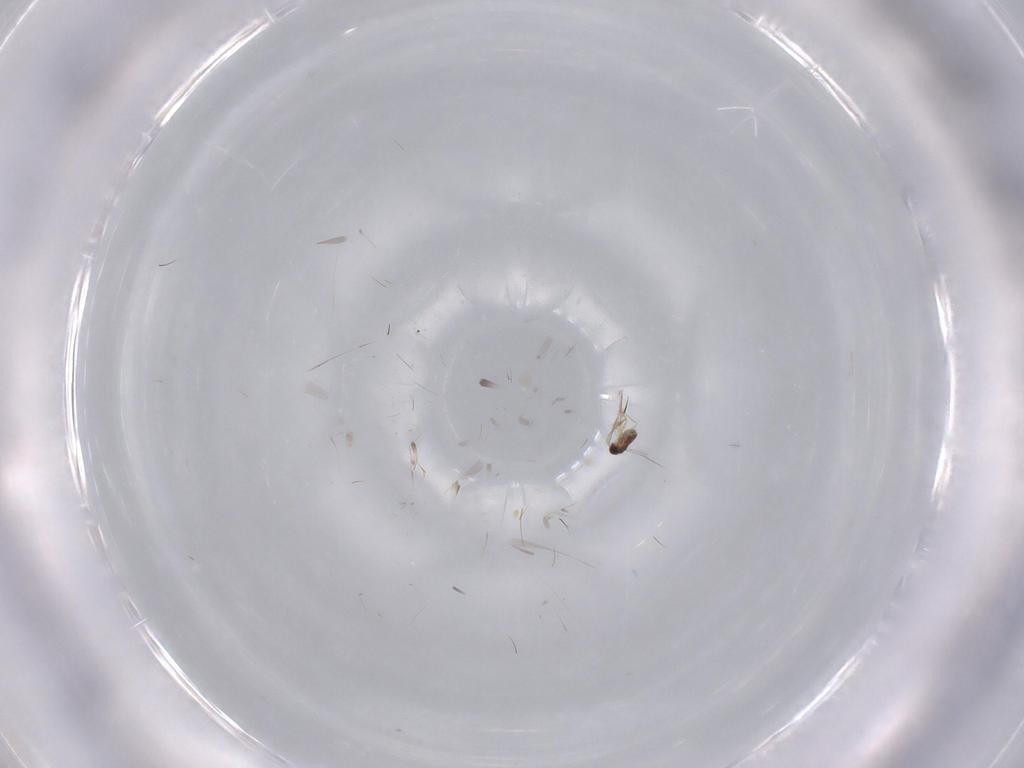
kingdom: Animalia
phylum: Arthropoda
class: Insecta
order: Hymenoptera
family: Mymaridae
